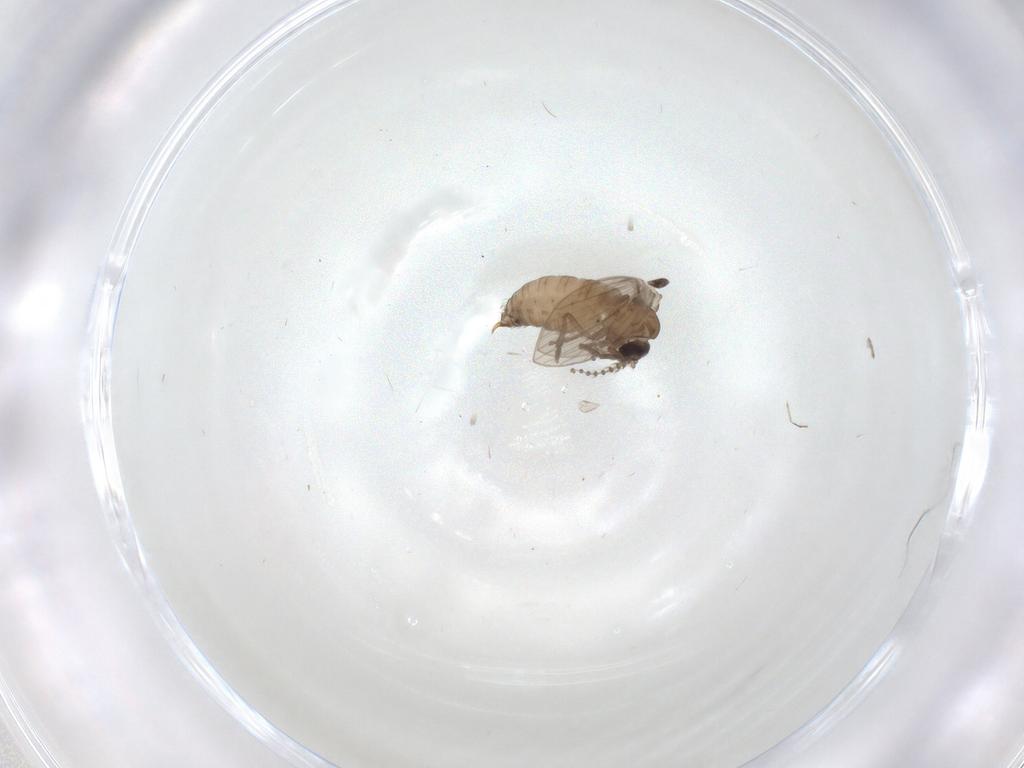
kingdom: Animalia
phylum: Arthropoda
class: Insecta
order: Diptera
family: Psychodidae
